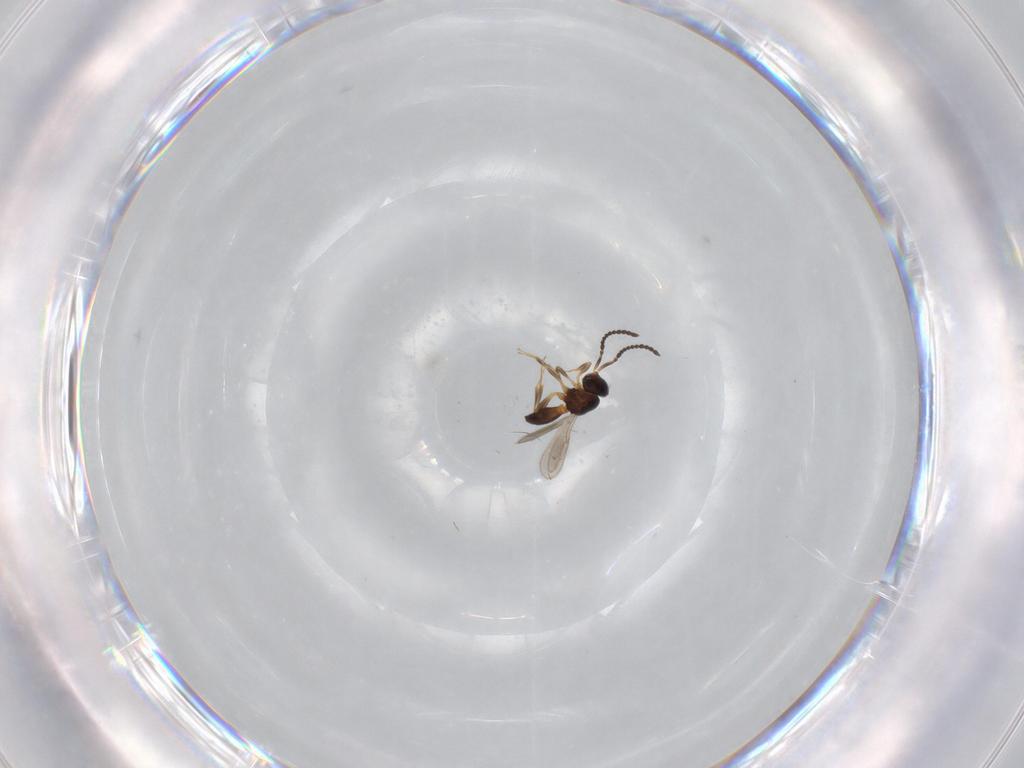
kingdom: Animalia
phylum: Arthropoda
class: Insecta
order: Hymenoptera
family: Scelionidae
